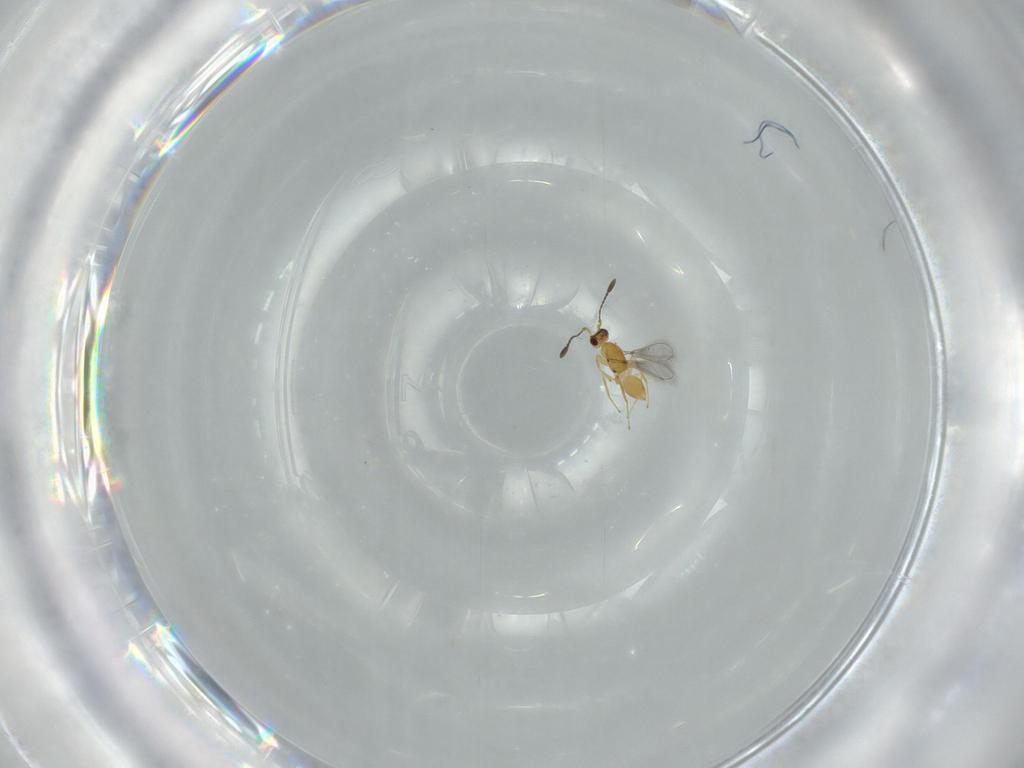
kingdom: Animalia
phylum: Arthropoda
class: Insecta
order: Hymenoptera
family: Mymaridae
